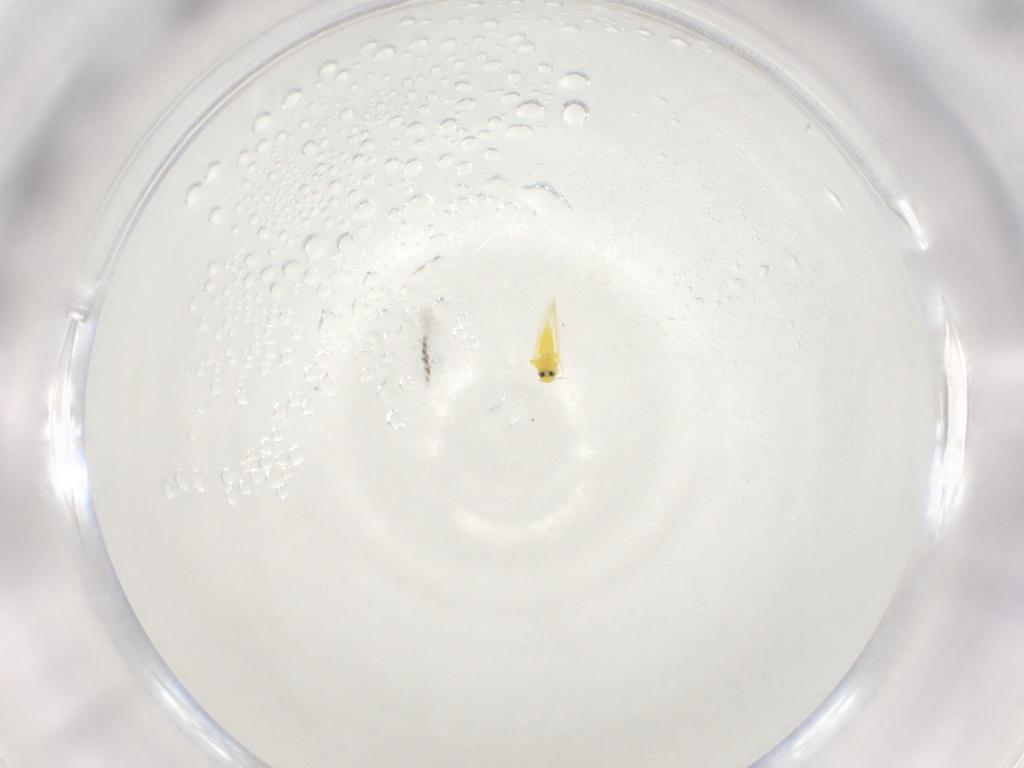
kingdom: Animalia
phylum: Arthropoda
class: Insecta
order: Hemiptera
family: Aleyrodidae
